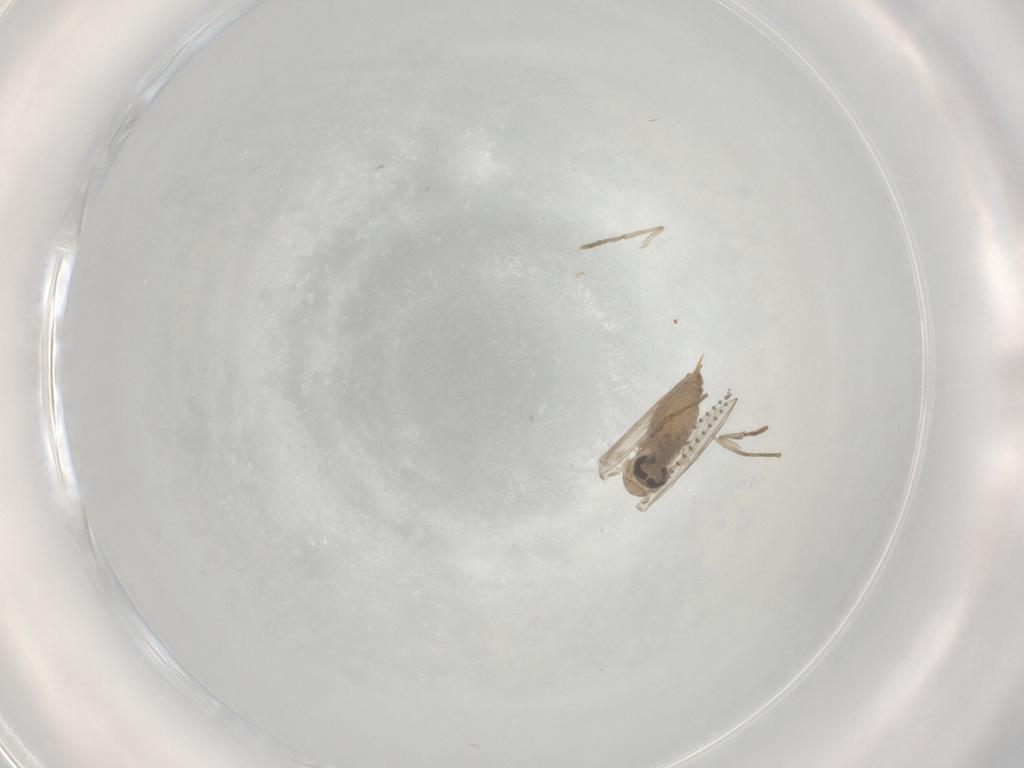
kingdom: Animalia
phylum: Arthropoda
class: Insecta
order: Diptera
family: Psychodidae
